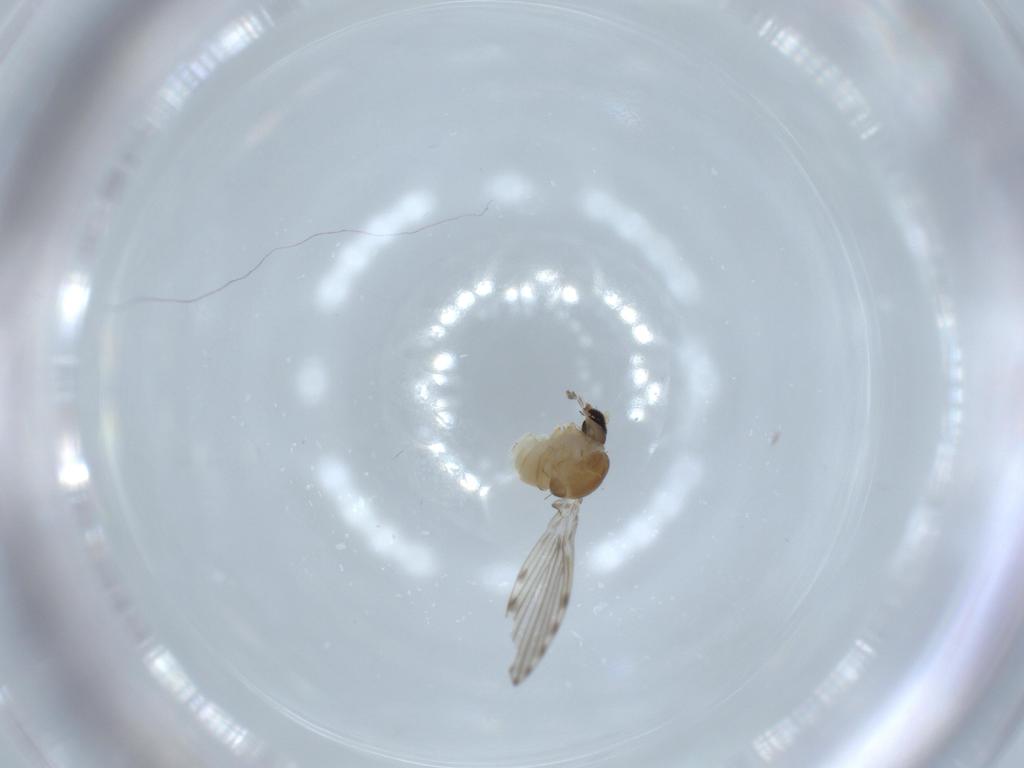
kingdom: Animalia
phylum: Arthropoda
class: Insecta
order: Diptera
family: Psychodidae
